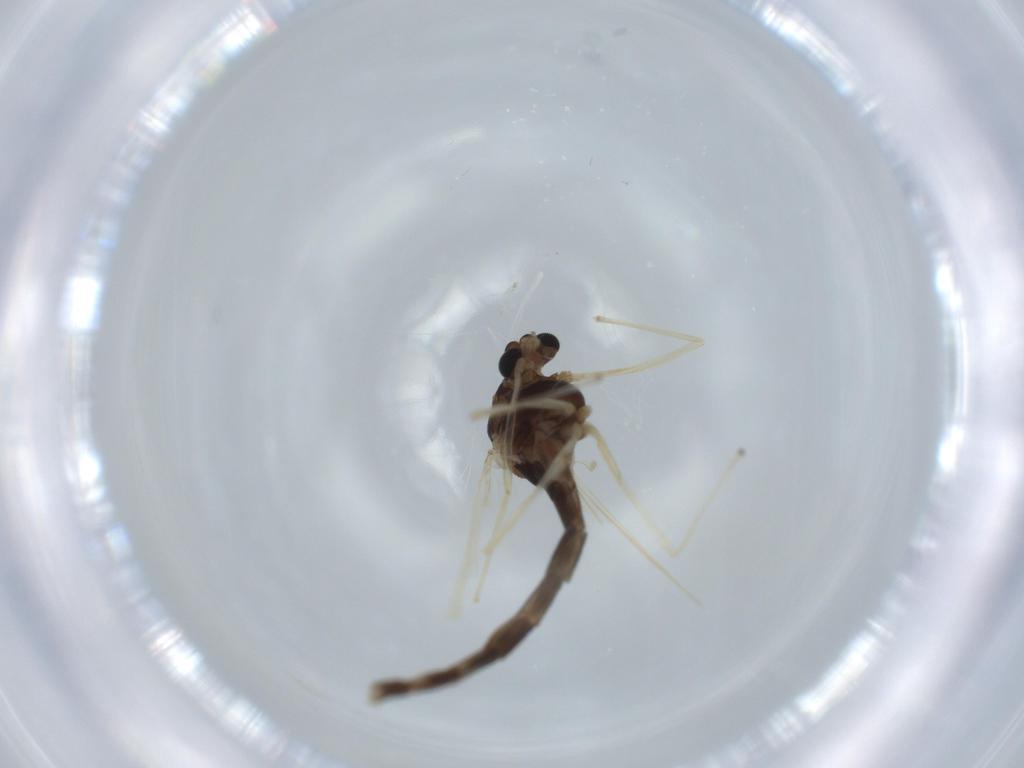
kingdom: Animalia
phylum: Arthropoda
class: Insecta
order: Diptera
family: Chironomidae
